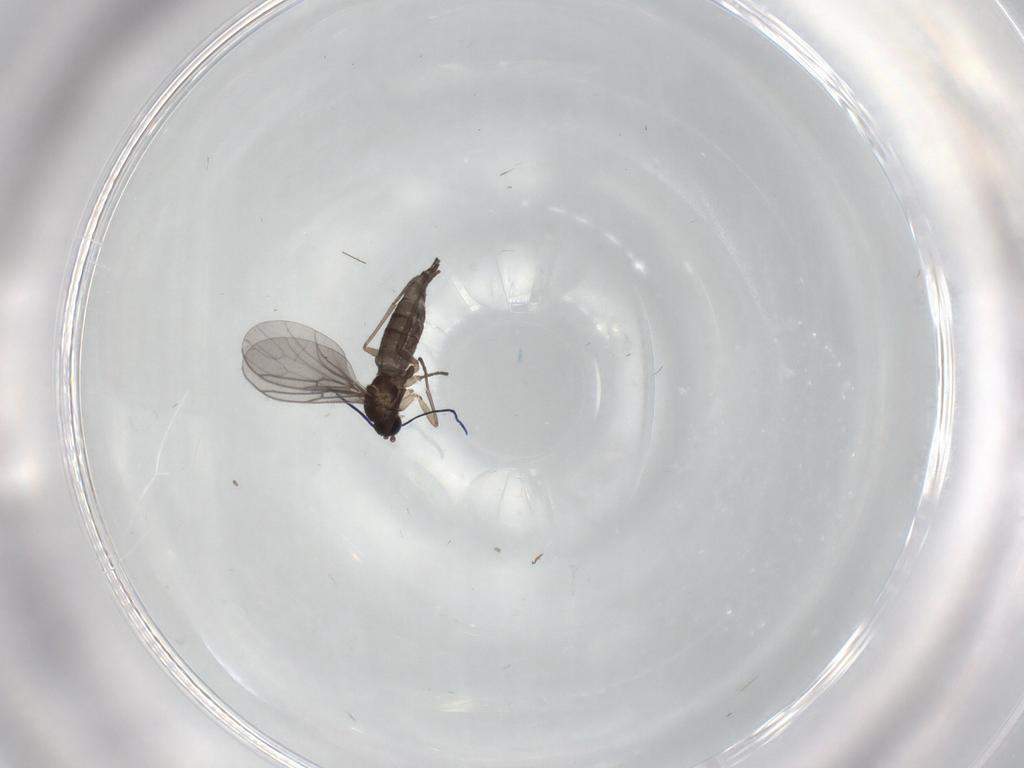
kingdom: Animalia
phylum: Arthropoda
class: Insecta
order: Diptera
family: Sciaridae
